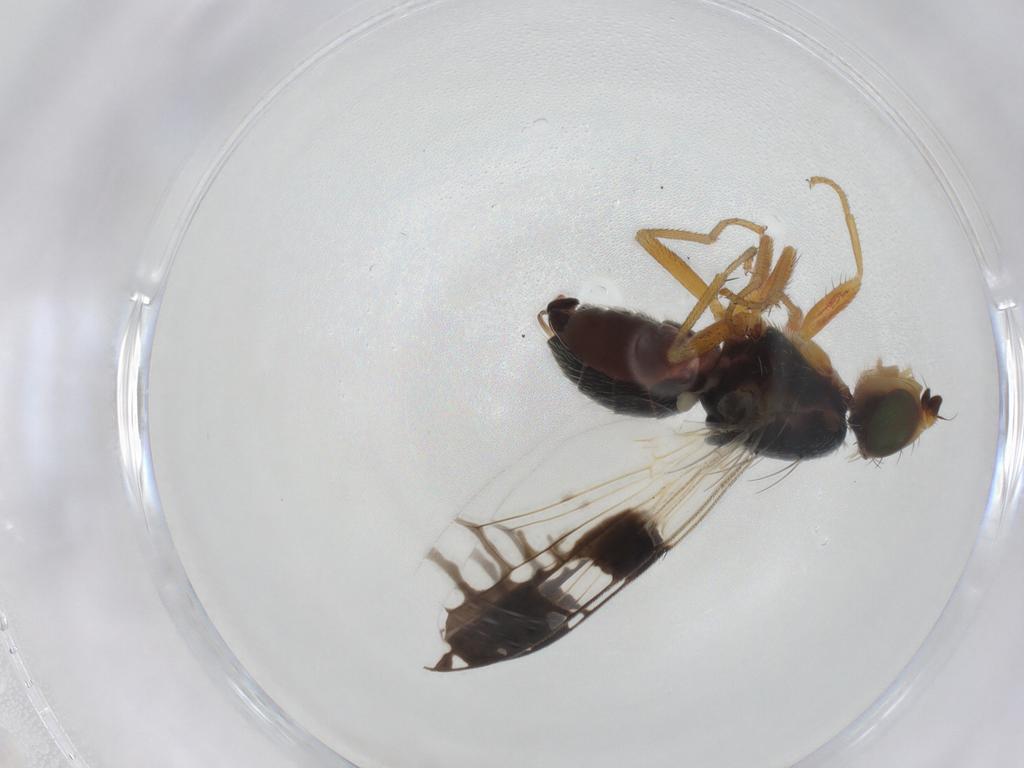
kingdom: Animalia
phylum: Arthropoda
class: Insecta
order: Diptera
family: Tephritidae
